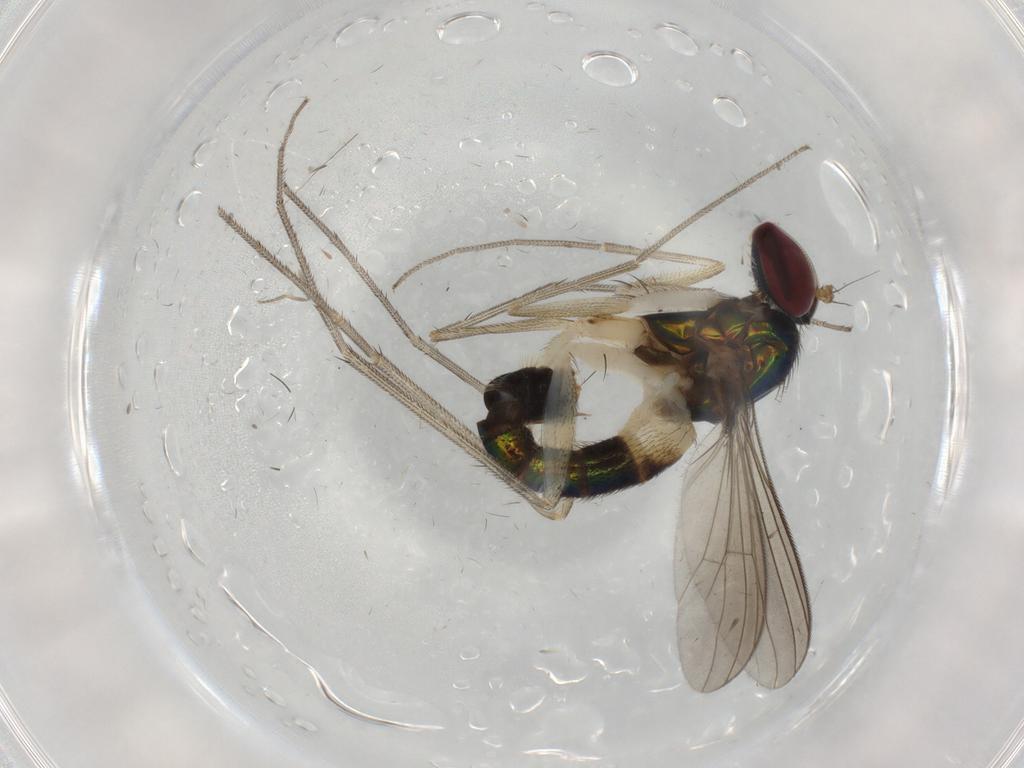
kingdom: Animalia
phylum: Arthropoda
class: Insecta
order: Diptera
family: Dolichopodidae
